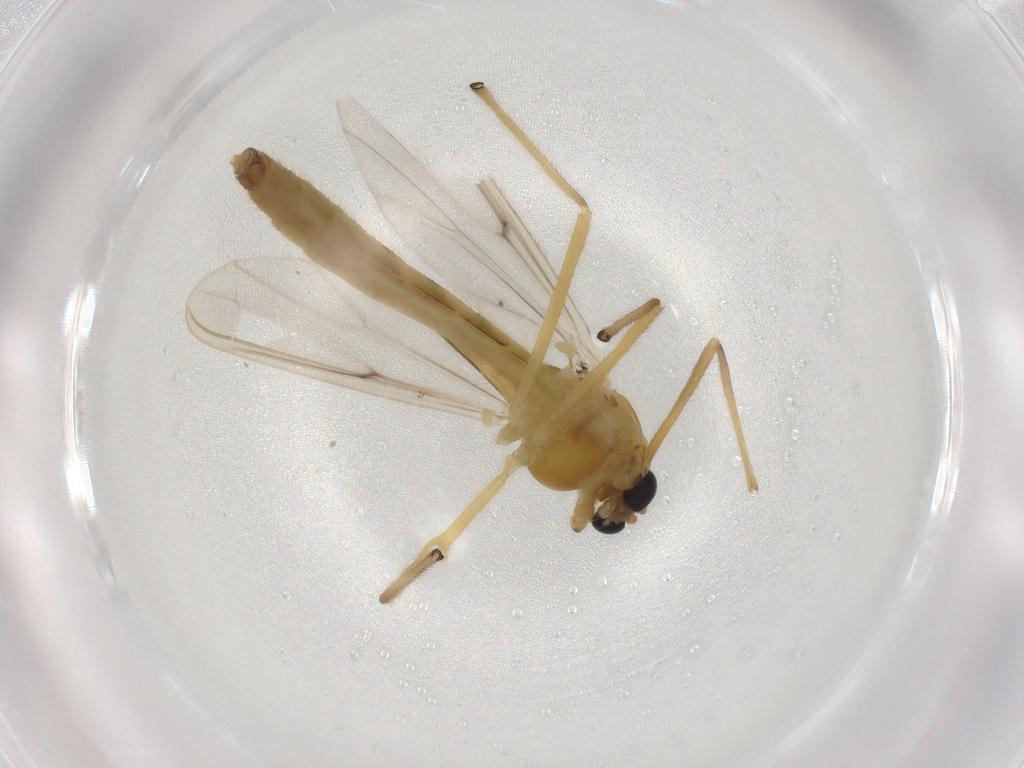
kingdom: Animalia
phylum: Arthropoda
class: Insecta
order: Diptera
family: Chironomidae
